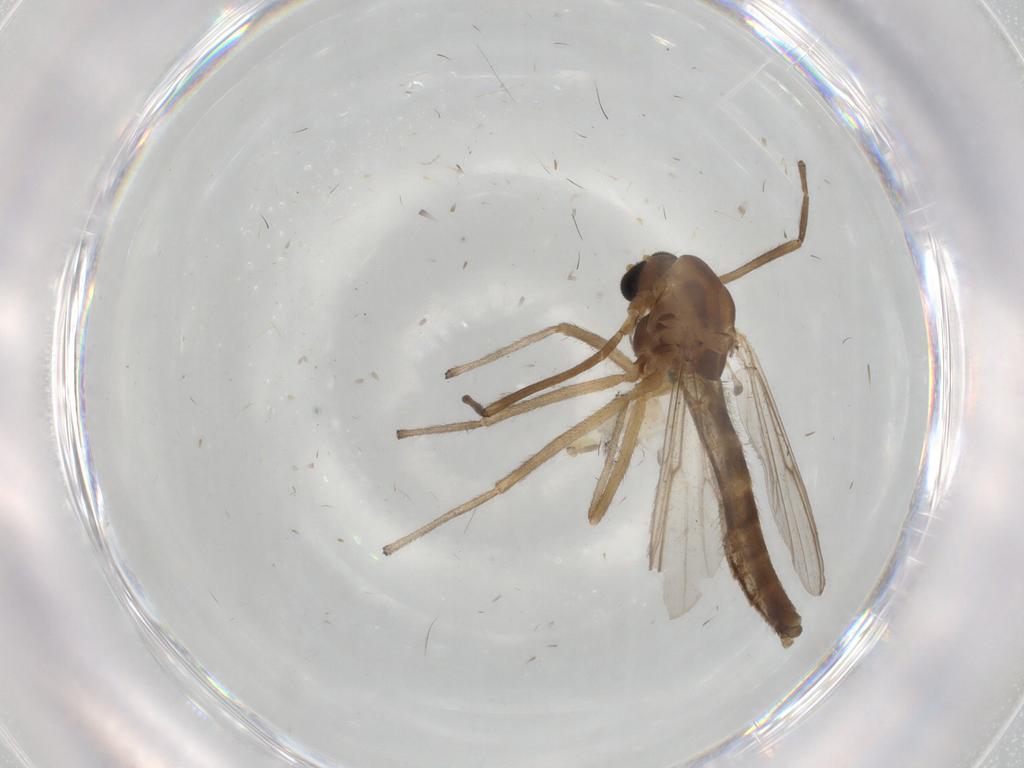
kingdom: Animalia
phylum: Arthropoda
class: Insecta
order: Diptera
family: Chironomidae
